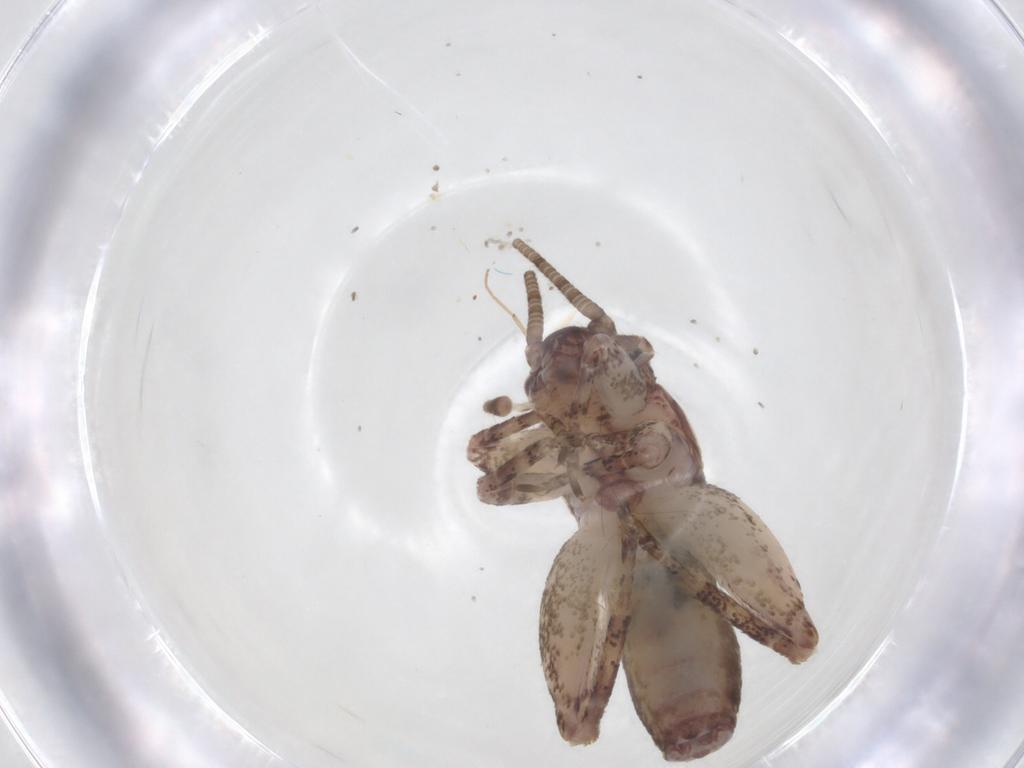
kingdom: Animalia
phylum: Arthropoda
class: Insecta
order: Orthoptera
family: Gryllidae
